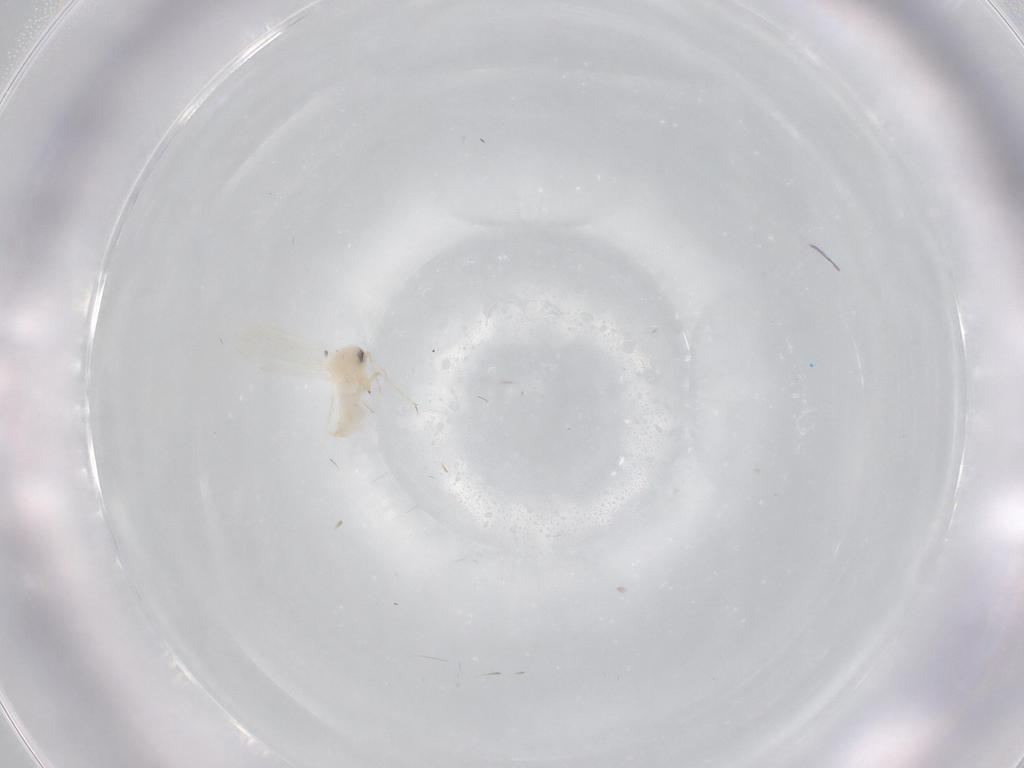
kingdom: Animalia
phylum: Arthropoda
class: Insecta
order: Hemiptera
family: Aleyrodidae
